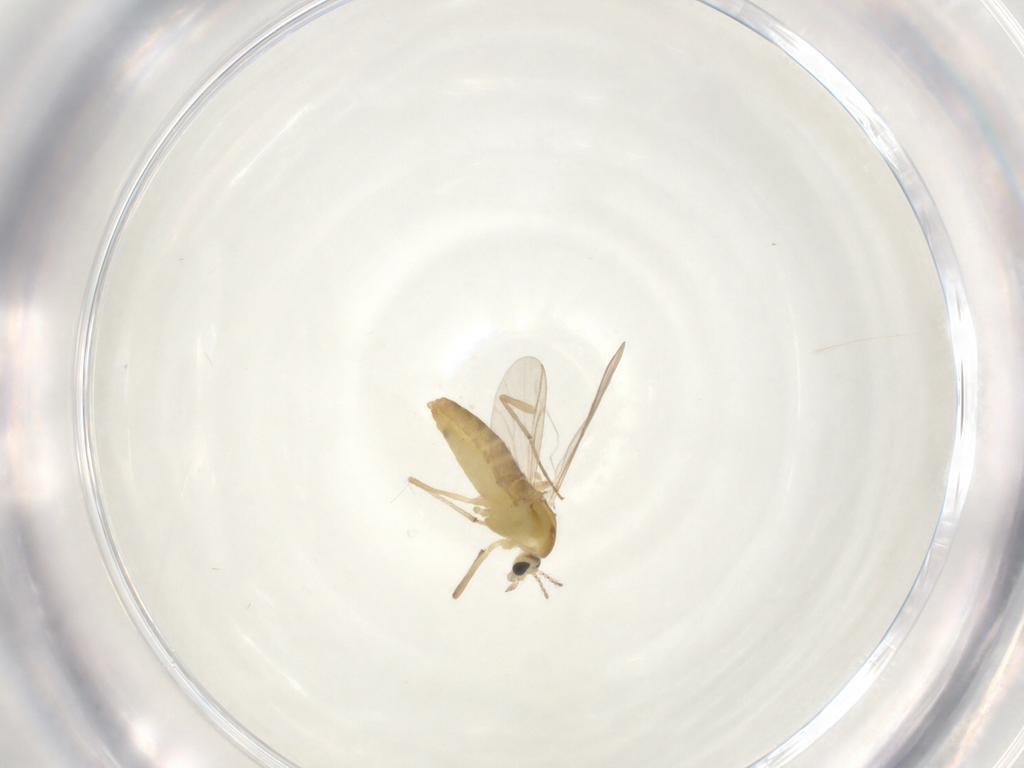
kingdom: Animalia
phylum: Arthropoda
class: Insecta
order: Diptera
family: Chironomidae
